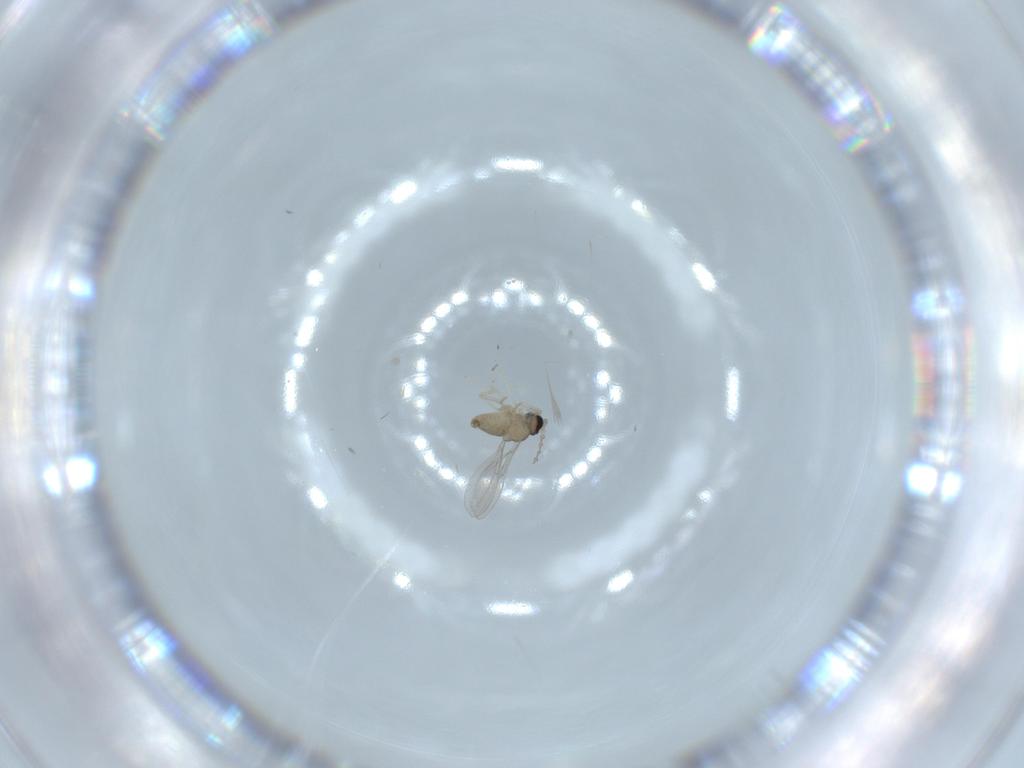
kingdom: Animalia
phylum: Arthropoda
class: Insecta
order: Diptera
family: Cecidomyiidae
